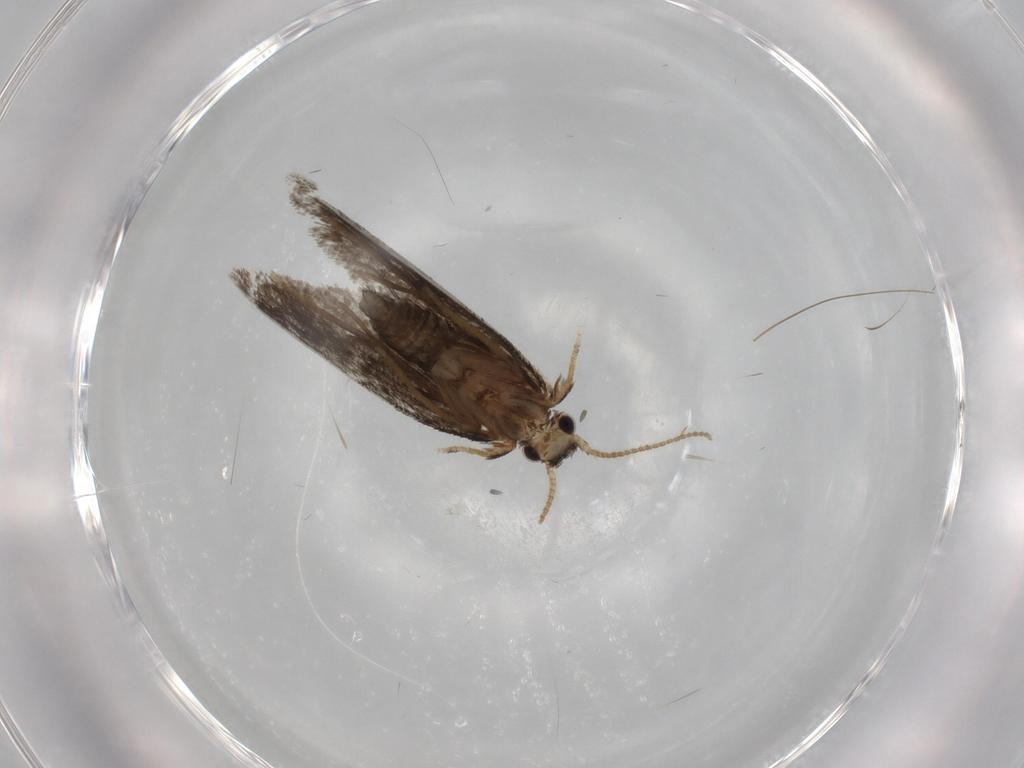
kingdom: Animalia
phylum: Arthropoda
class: Insecta
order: Lepidoptera
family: Psychidae
